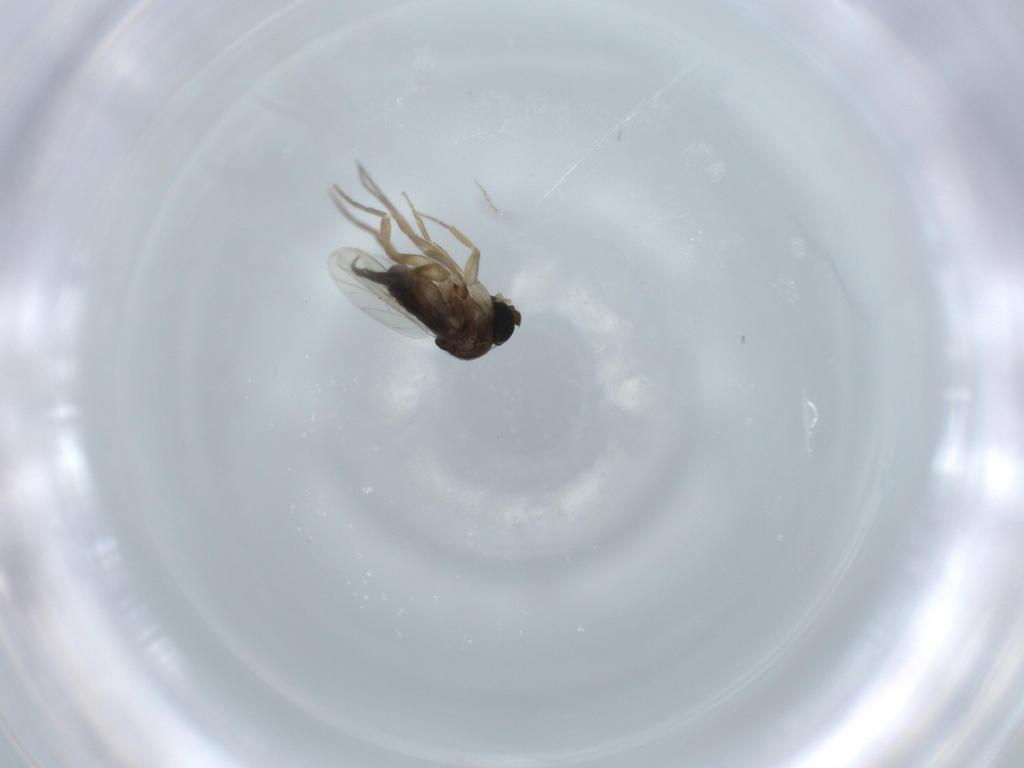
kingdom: Animalia
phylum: Arthropoda
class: Insecta
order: Diptera
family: Phoridae
